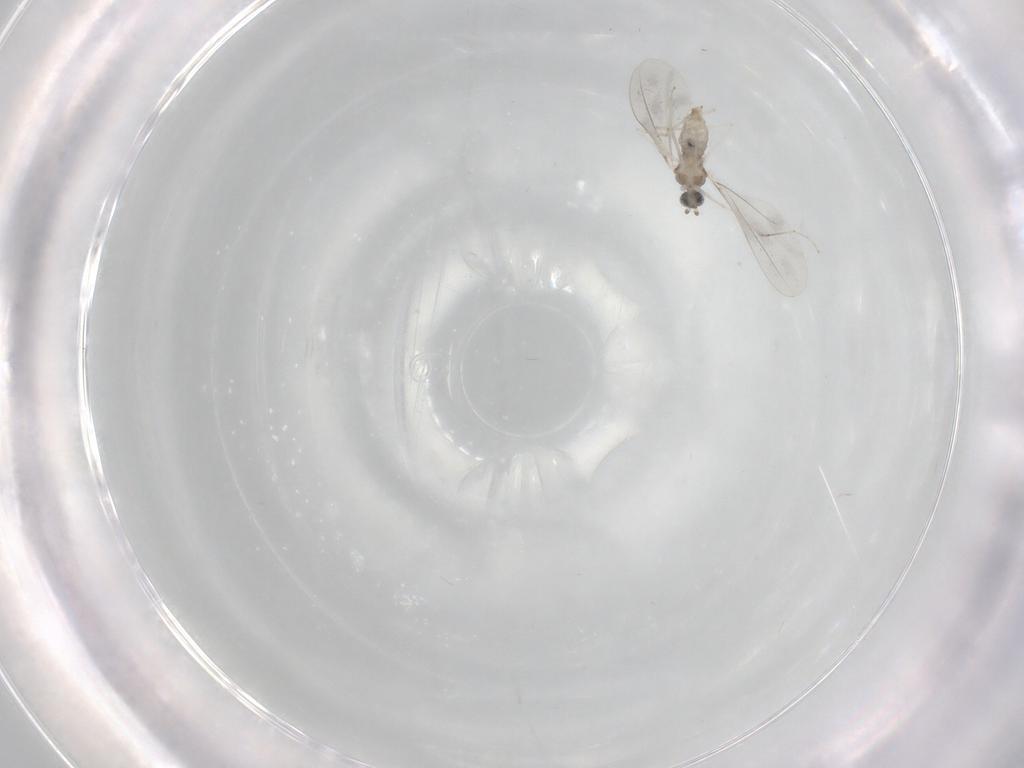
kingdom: Animalia
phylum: Arthropoda
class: Insecta
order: Diptera
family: Cecidomyiidae
